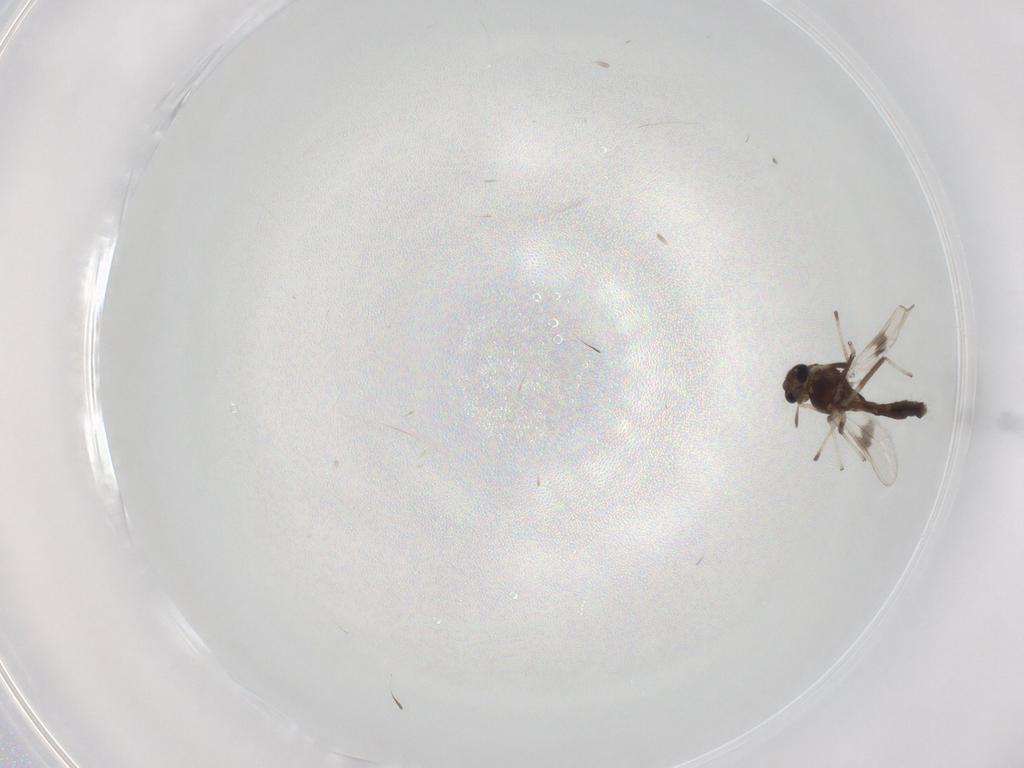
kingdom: Animalia
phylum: Arthropoda
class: Insecta
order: Diptera
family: Chironomidae
